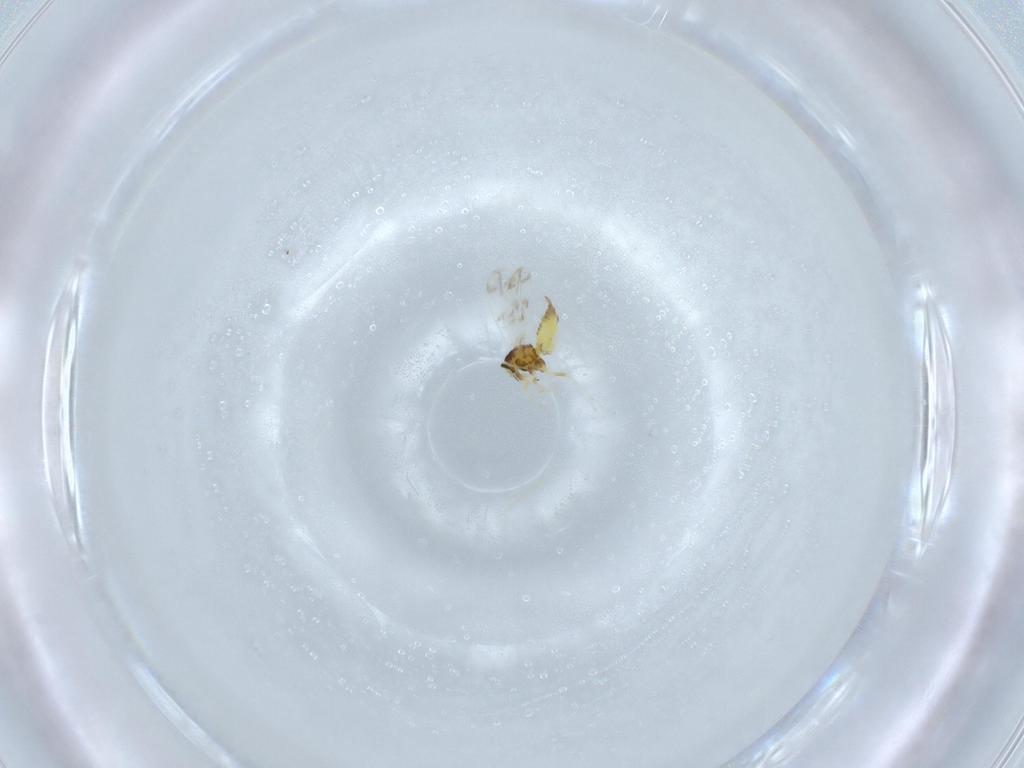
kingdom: Animalia
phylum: Arthropoda
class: Insecta
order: Hemiptera
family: Aleyrodidae
